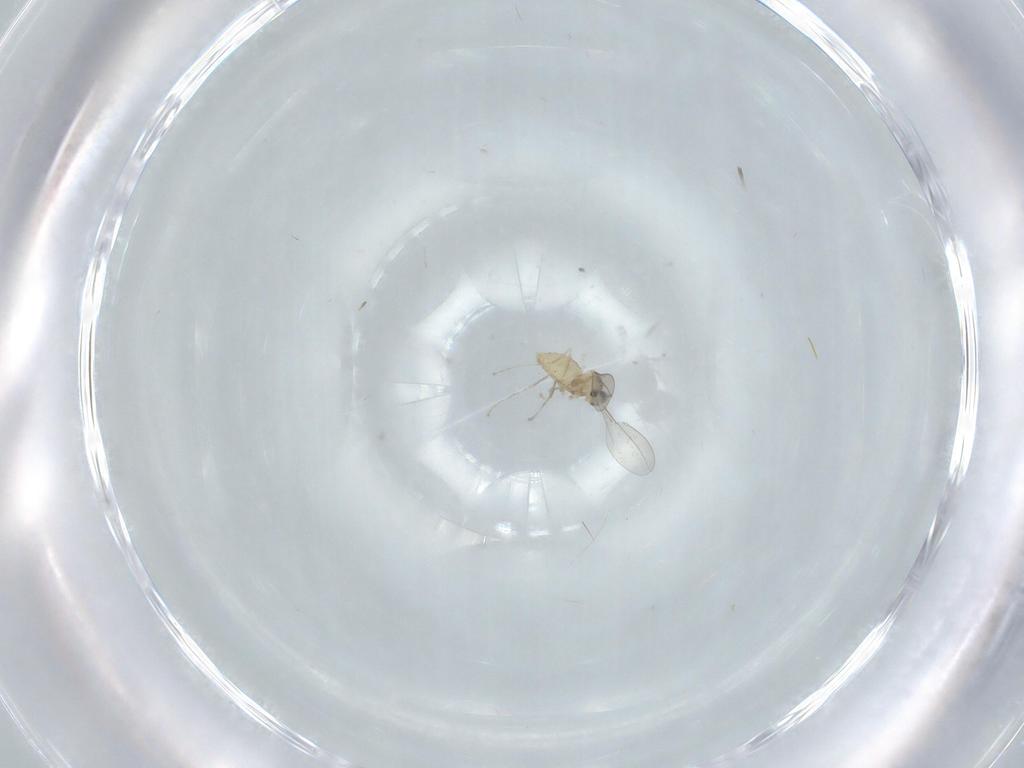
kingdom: Animalia
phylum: Arthropoda
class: Insecta
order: Diptera
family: Cecidomyiidae
